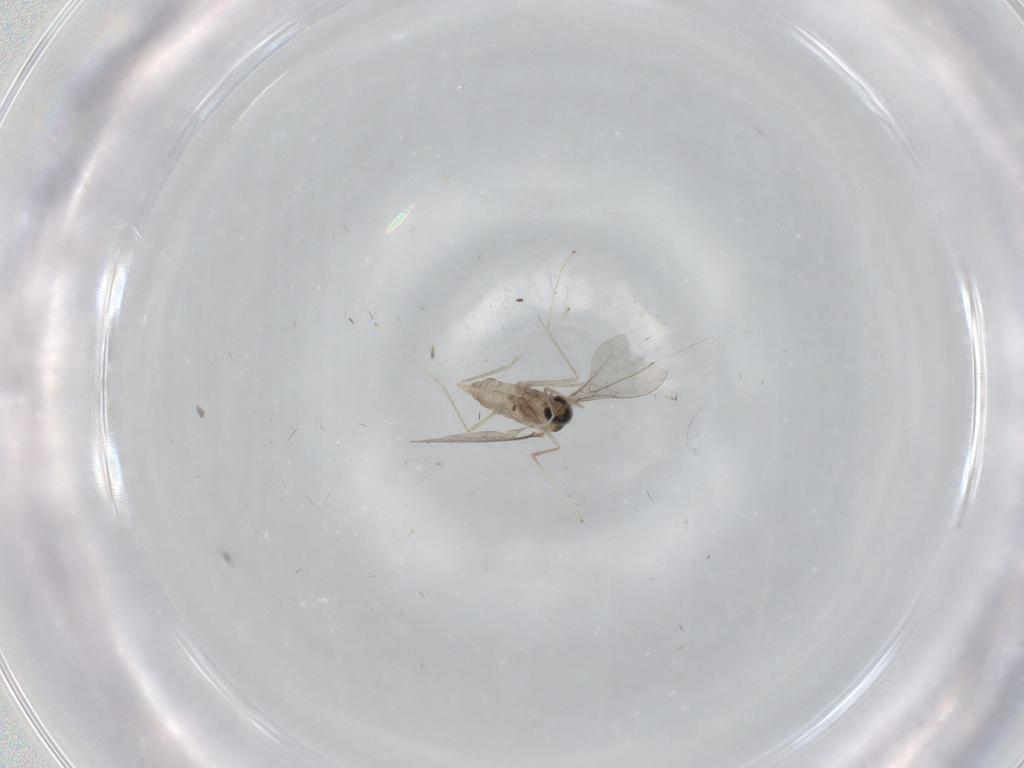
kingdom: Animalia
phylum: Arthropoda
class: Insecta
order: Diptera
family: Cecidomyiidae
